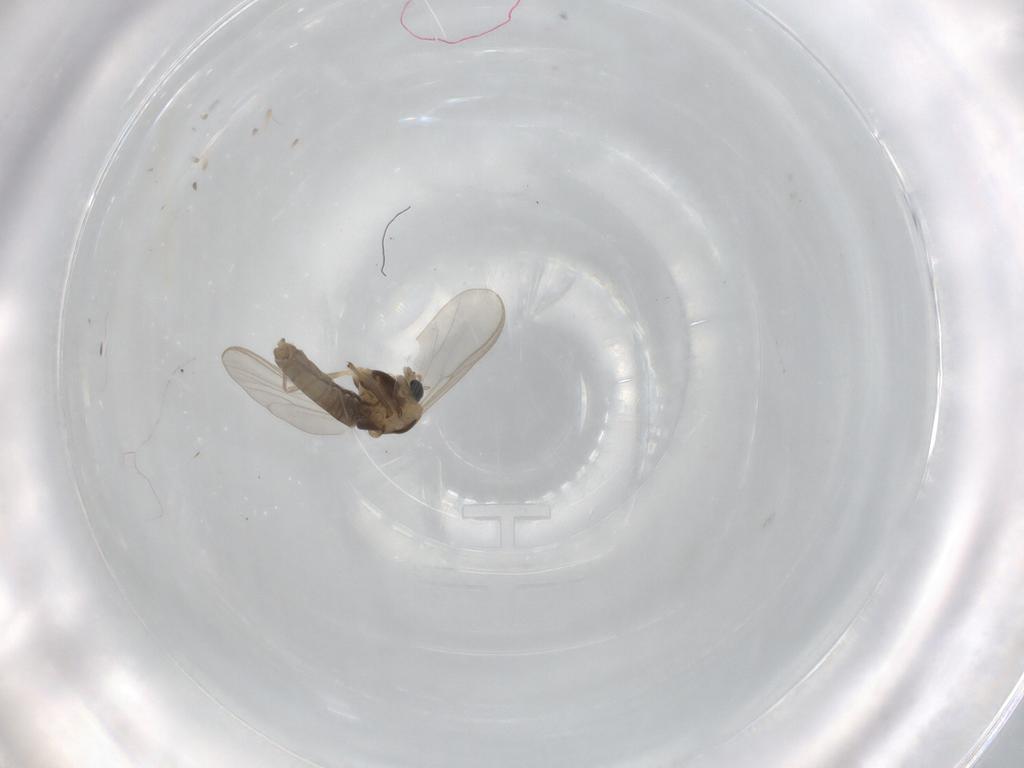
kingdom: Animalia
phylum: Arthropoda
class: Insecta
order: Diptera
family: Chironomidae
